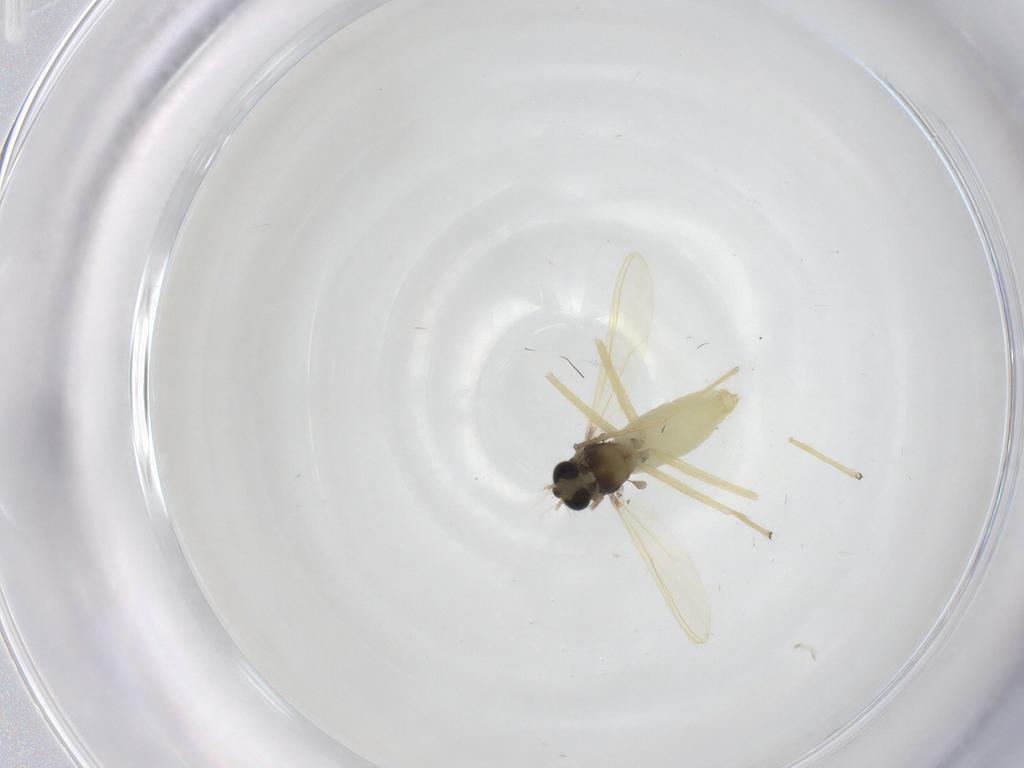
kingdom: Animalia
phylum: Arthropoda
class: Insecta
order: Diptera
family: Chironomidae
